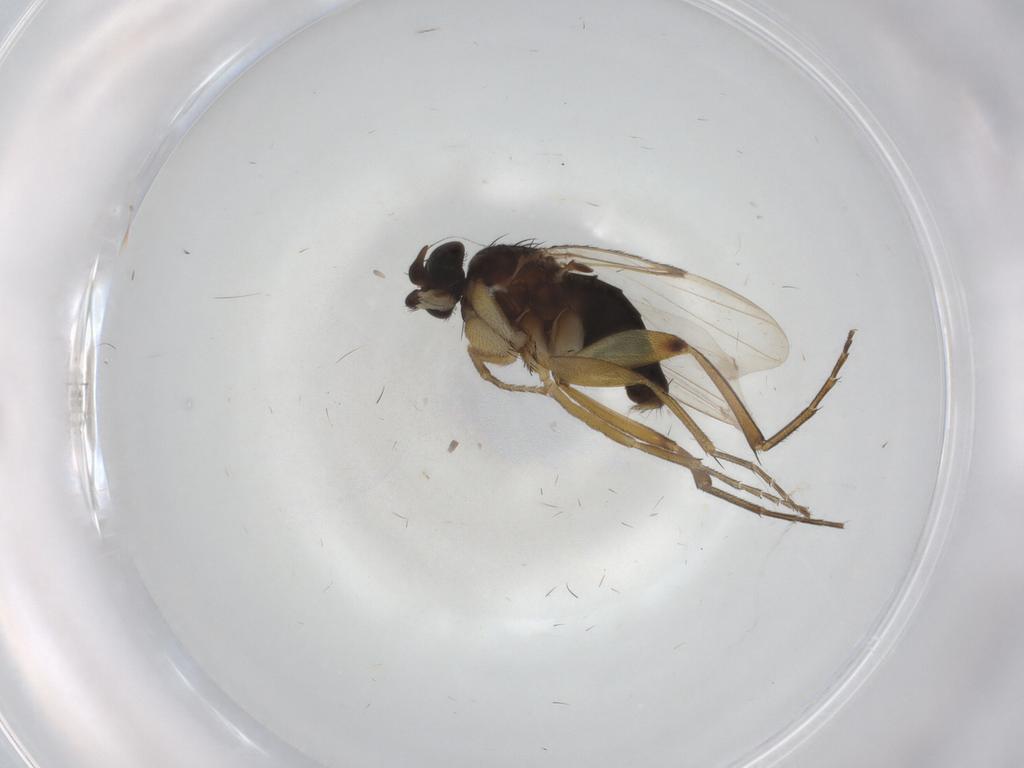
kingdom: Animalia
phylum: Arthropoda
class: Insecta
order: Diptera
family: Phoridae
